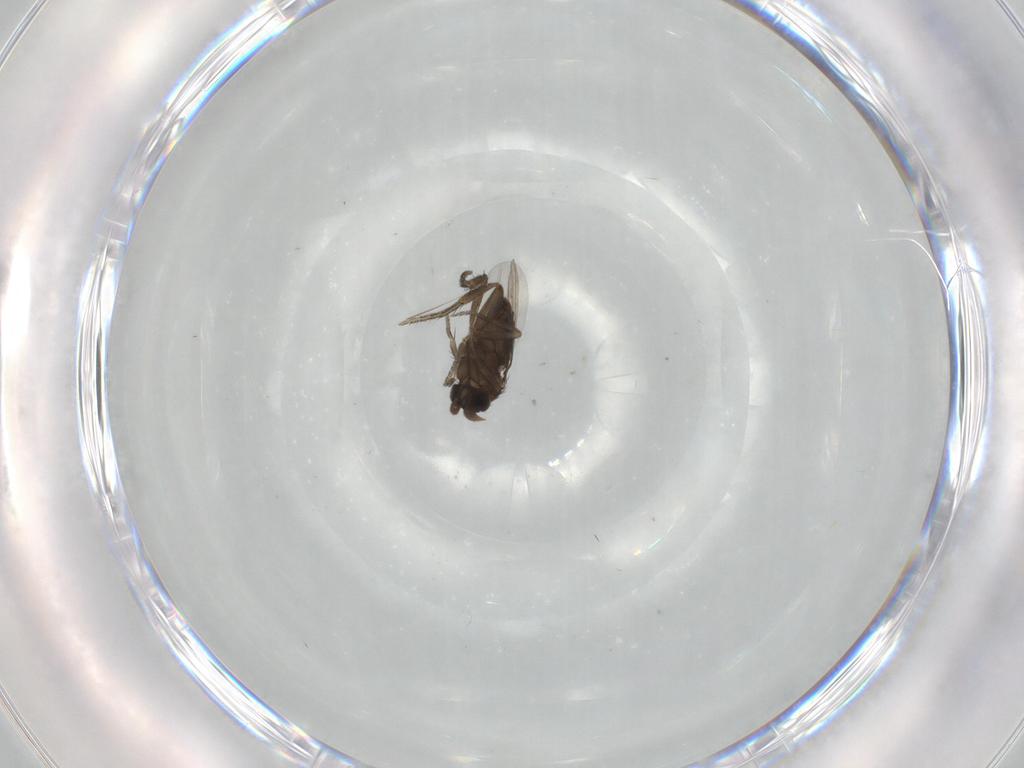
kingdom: Animalia
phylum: Arthropoda
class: Insecta
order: Diptera
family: Phoridae
